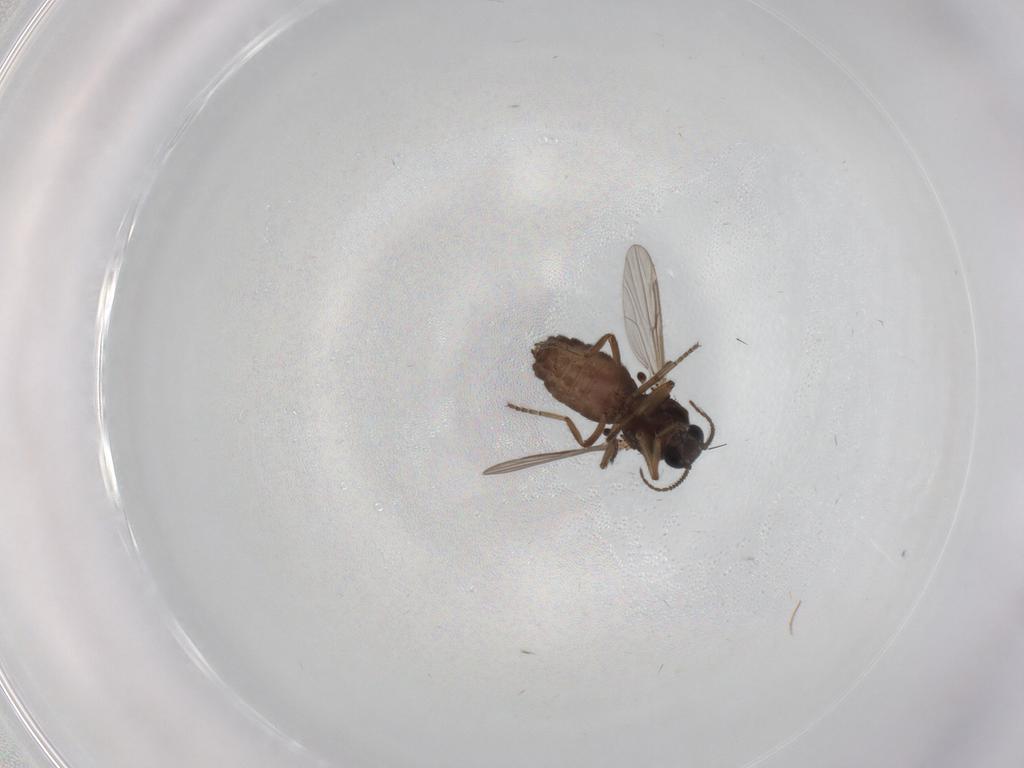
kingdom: Animalia
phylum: Arthropoda
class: Insecta
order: Diptera
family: Ceratopogonidae
